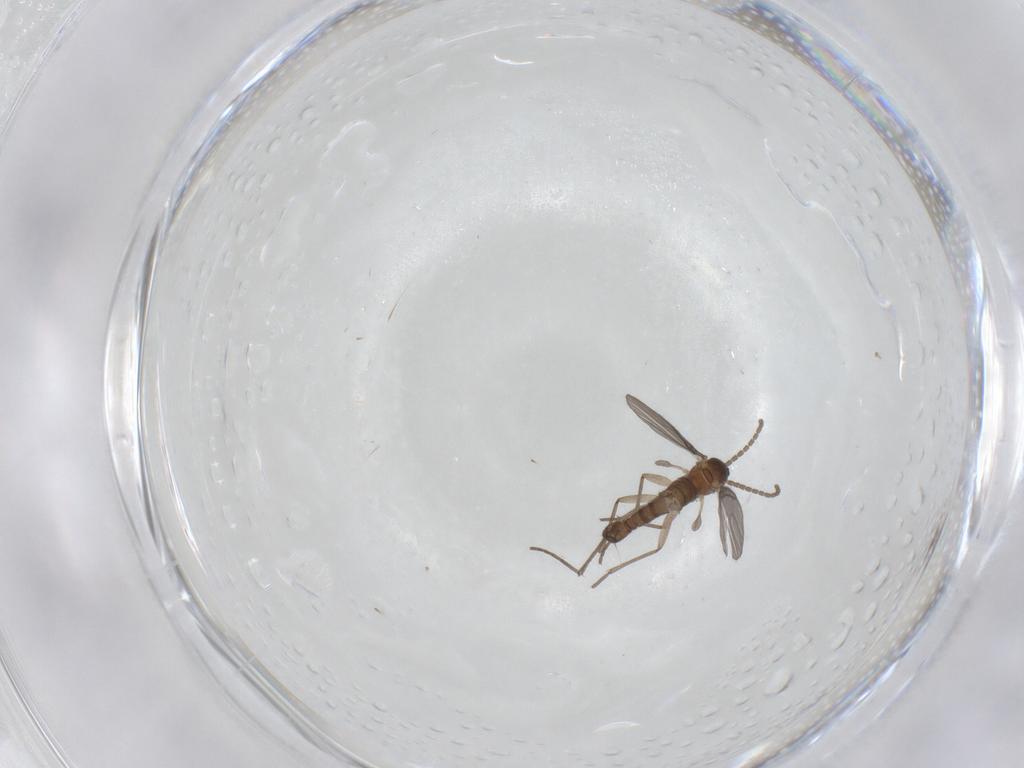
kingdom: Animalia
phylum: Arthropoda
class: Insecta
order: Diptera
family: Sciaridae
